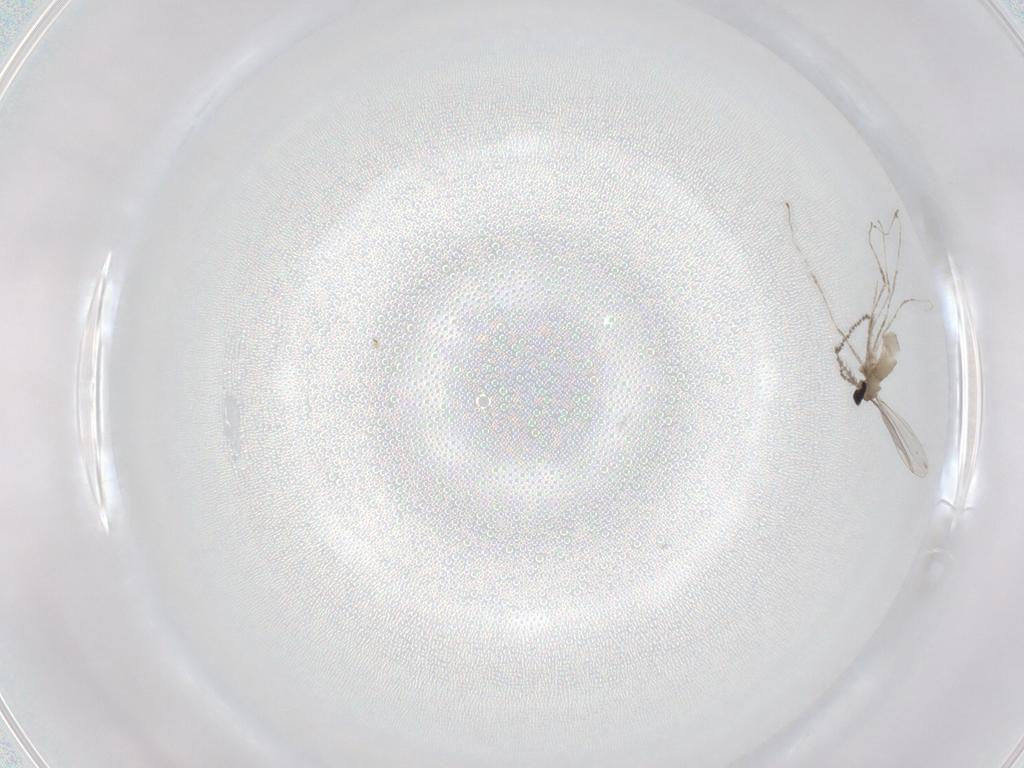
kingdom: Animalia
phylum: Arthropoda
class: Insecta
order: Diptera
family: Cecidomyiidae
